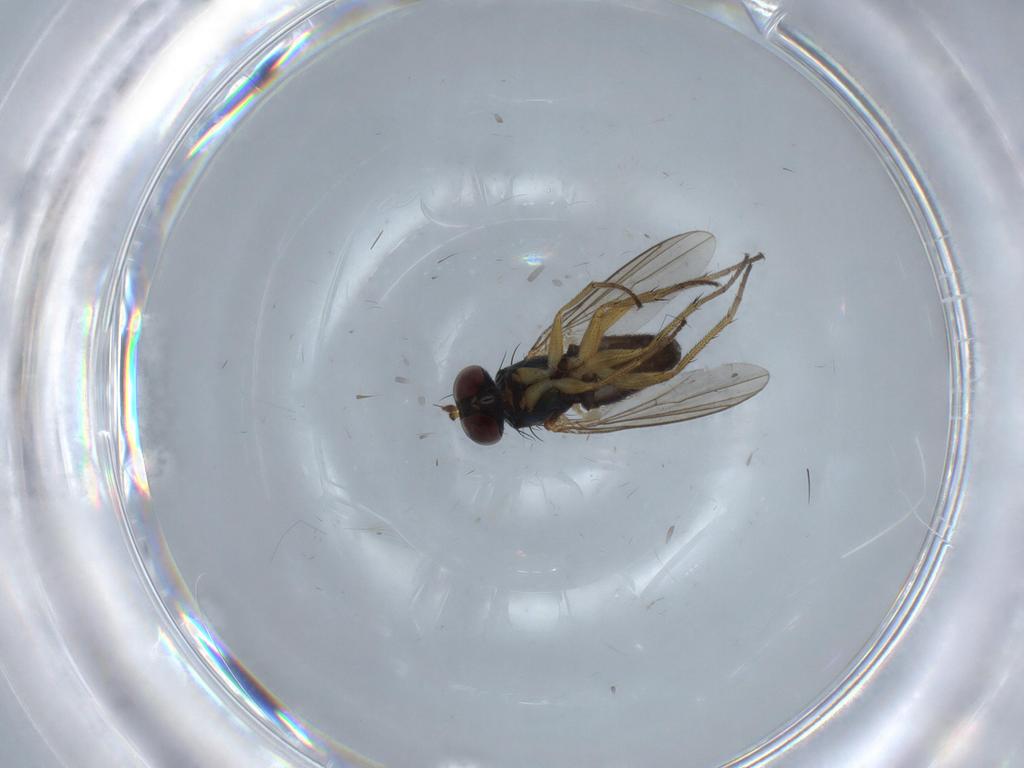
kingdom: Animalia
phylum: Arthropoda
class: Insecta
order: Diptera
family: Dolichopodidae
